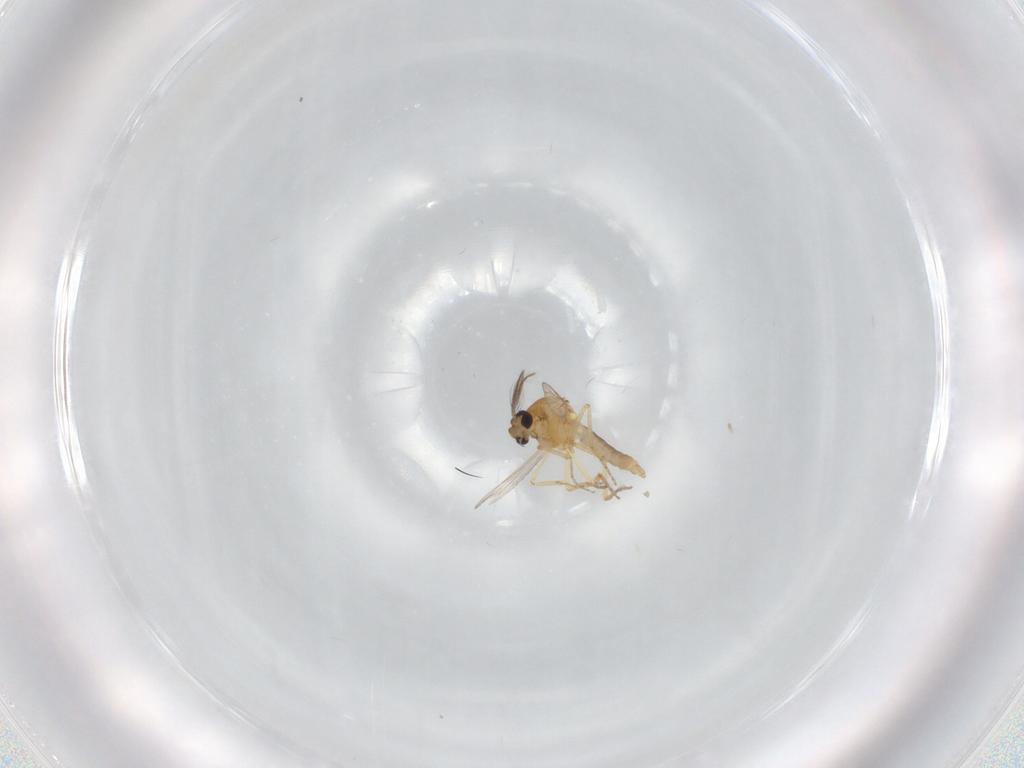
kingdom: Animalia
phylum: Arthropoda
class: Insecta
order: Diptera
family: Ceratopogonidae
